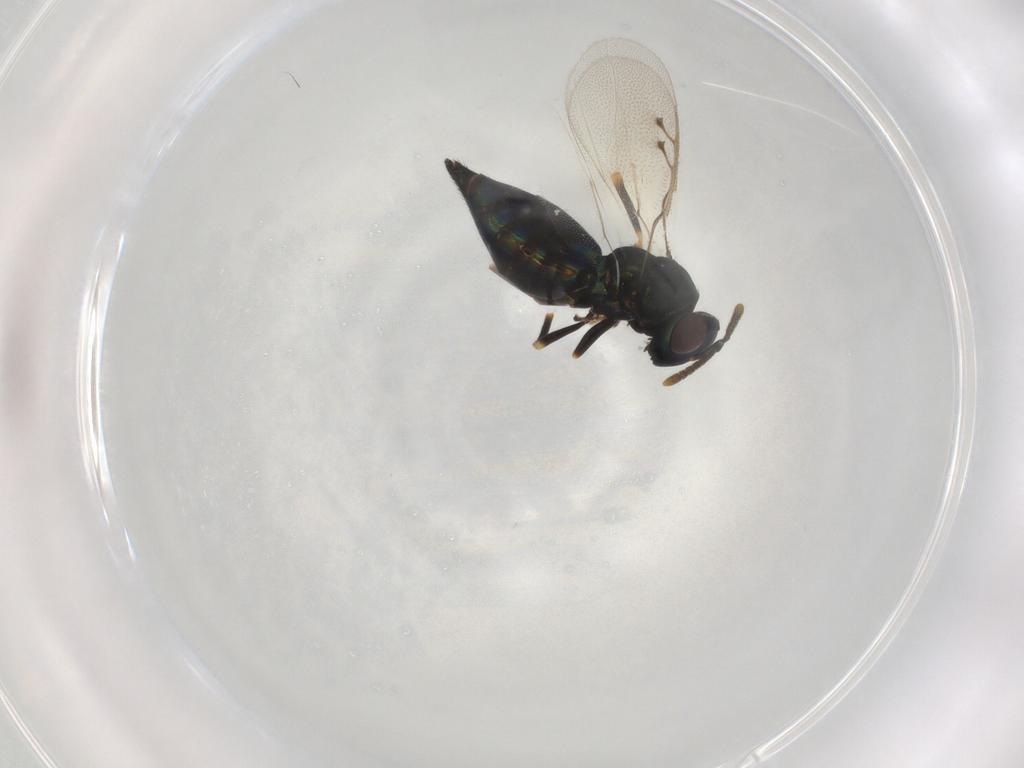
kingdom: Animalia
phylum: Arthropoda
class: Insecta
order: Hymenoptera
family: Pteromalidae
